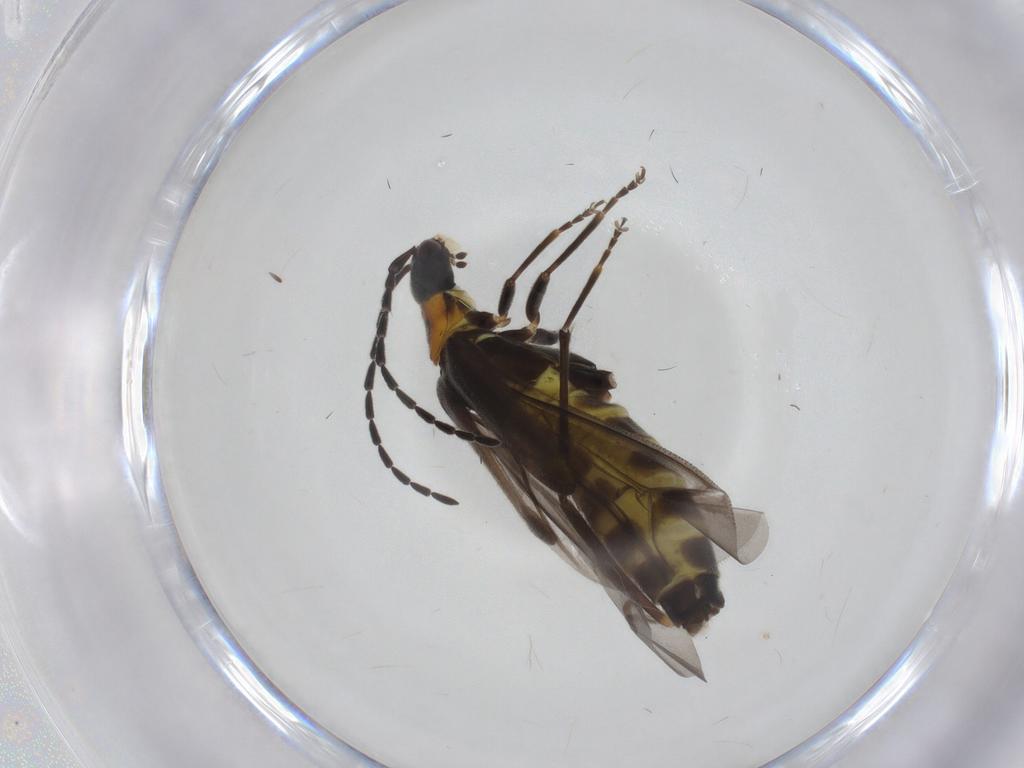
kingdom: Animalia
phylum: Arthropoda
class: Insecta
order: Coleoptera
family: Cantharidae
